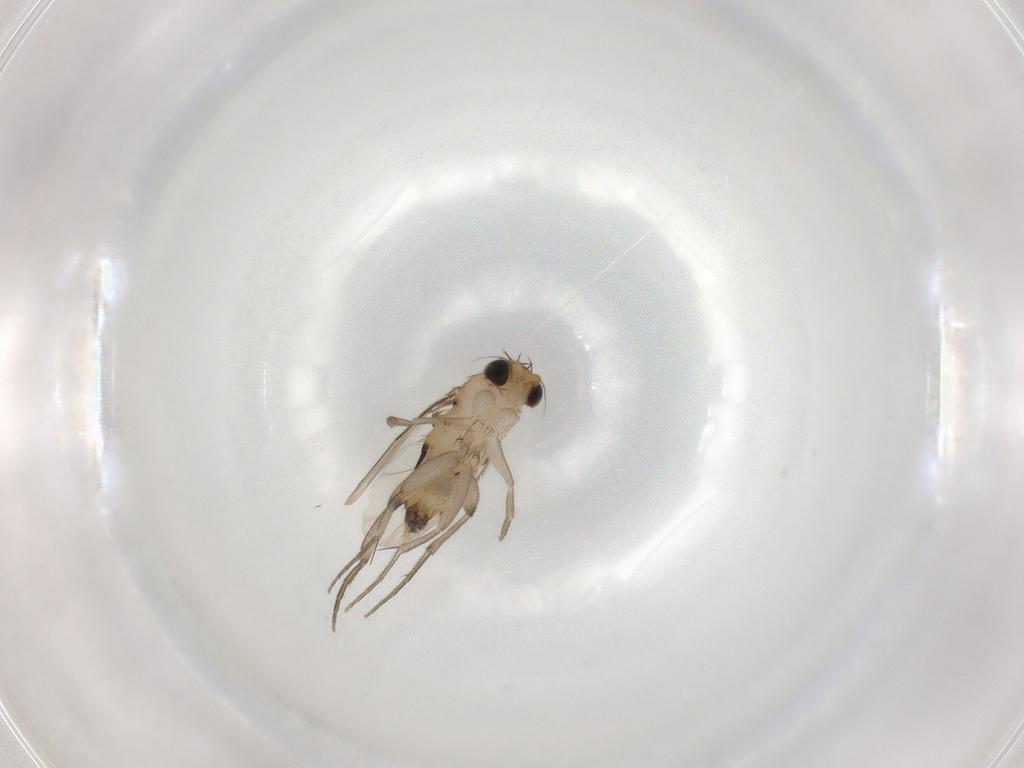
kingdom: Animalia
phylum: Arthropoda
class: Insecta
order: Diptera
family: Phoridae
